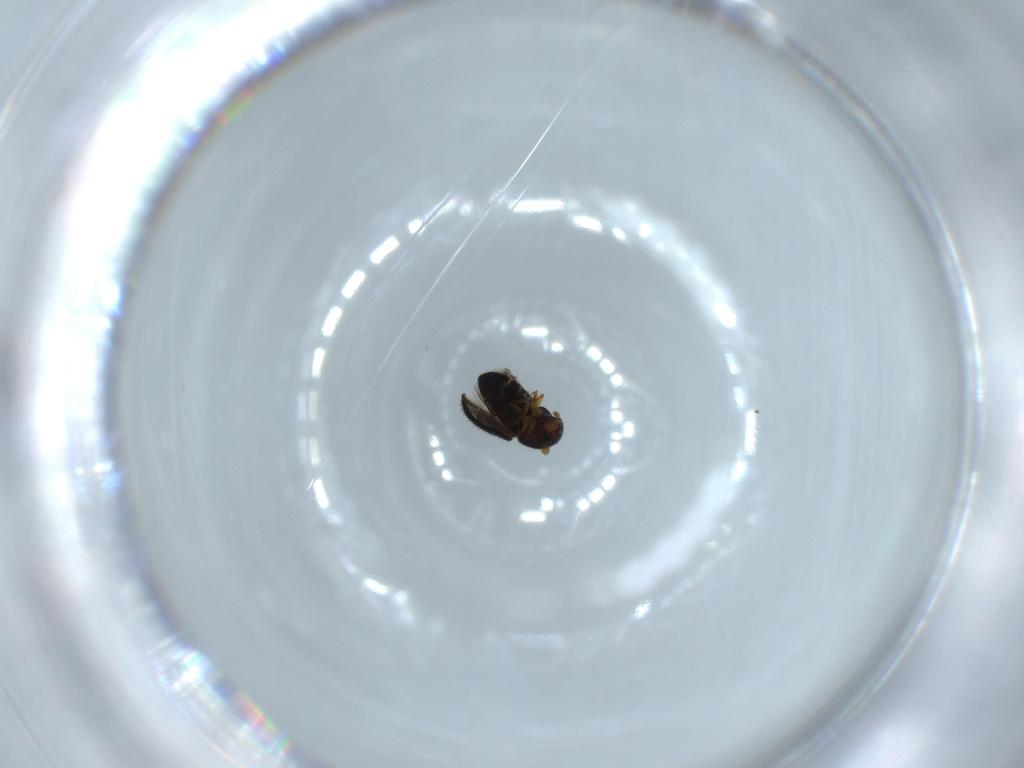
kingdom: Animalia
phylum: Arthropoda
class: Insecta
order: Coleoptera
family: Curculionidae
